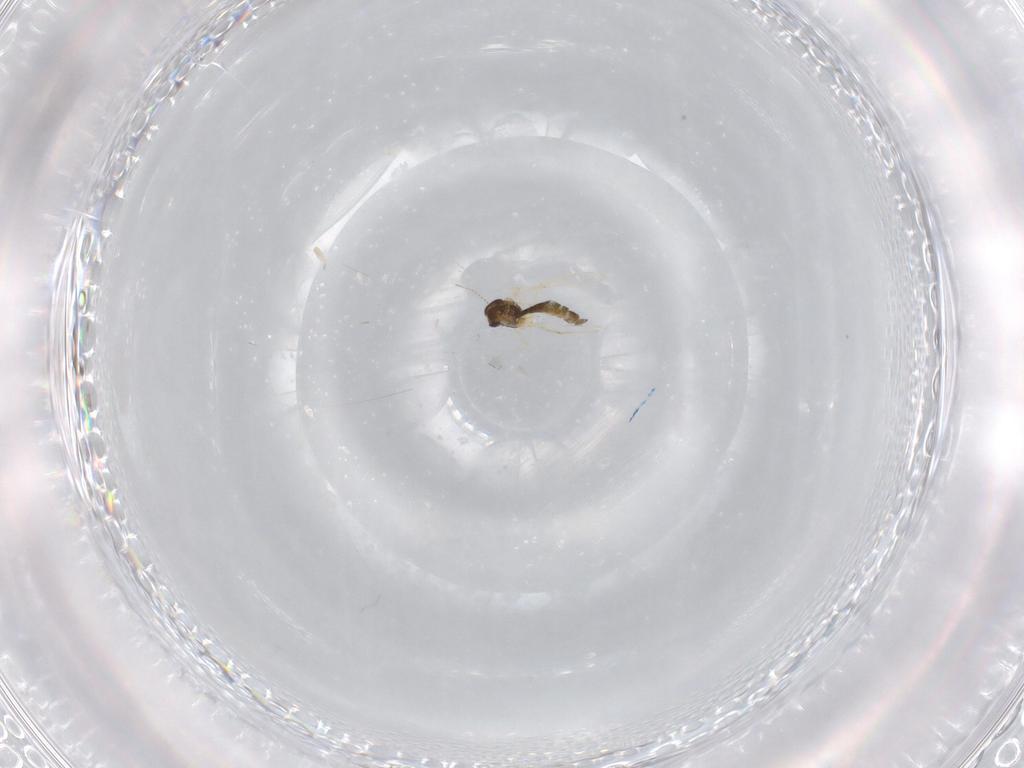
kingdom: Animalia
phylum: Arthropoda
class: Insecta
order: Diptera
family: Chironomidae
